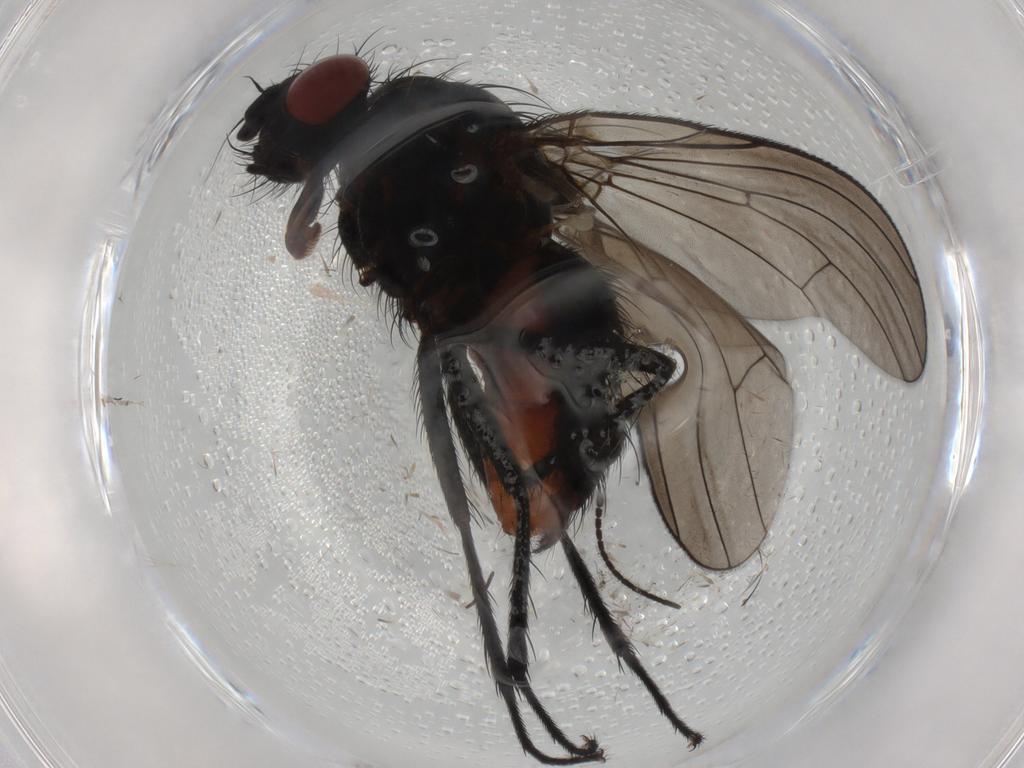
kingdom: Animalia
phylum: Arthropoda
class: Insecta
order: Diptera
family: Anthomyiidae
